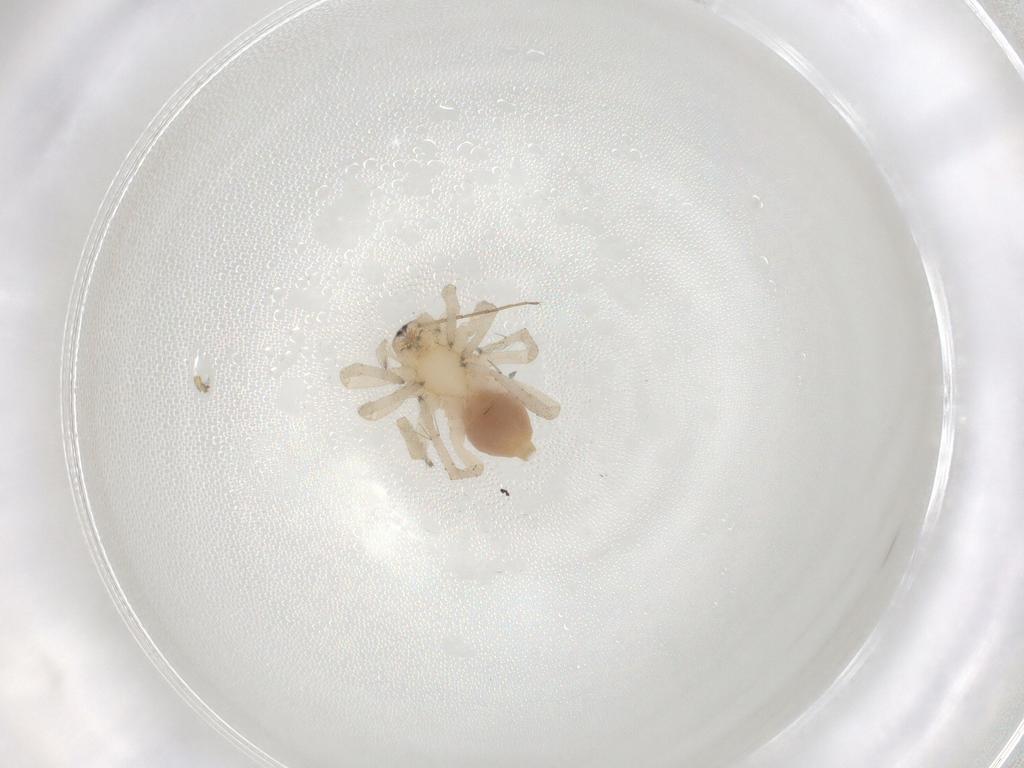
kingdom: Animalia
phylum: Arthropoda
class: Arachnida
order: Araneae
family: Clubionidae
